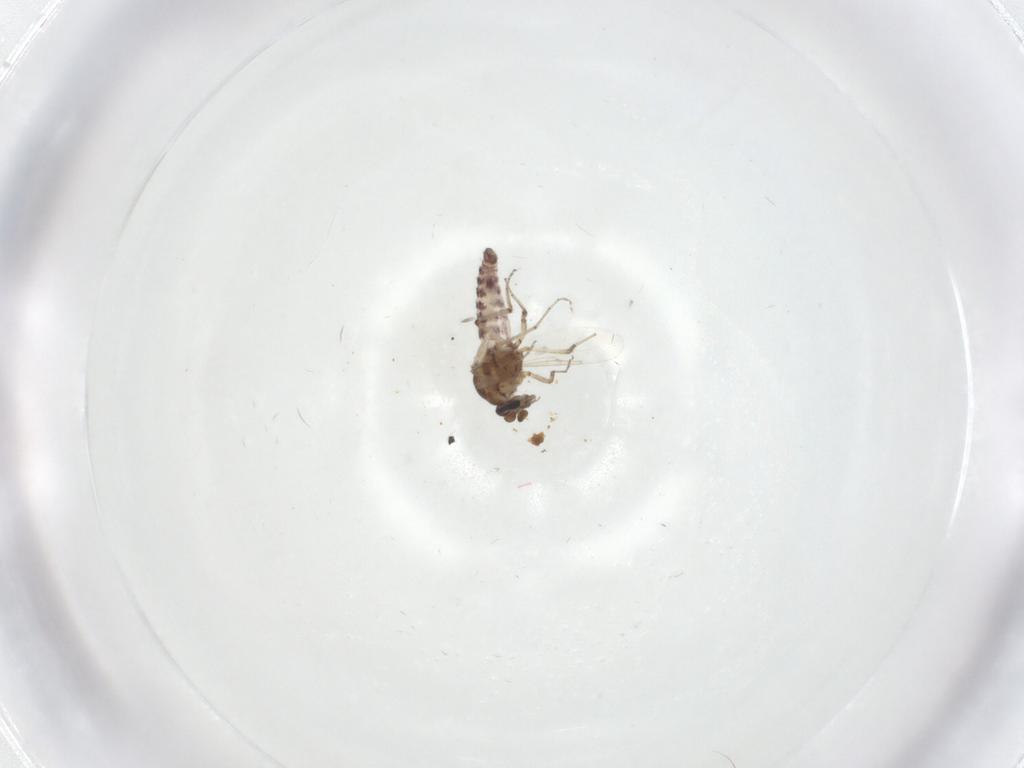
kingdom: Animalia
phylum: Arthropoda
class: Insecta
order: Diptera
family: Ceratopogonidae
